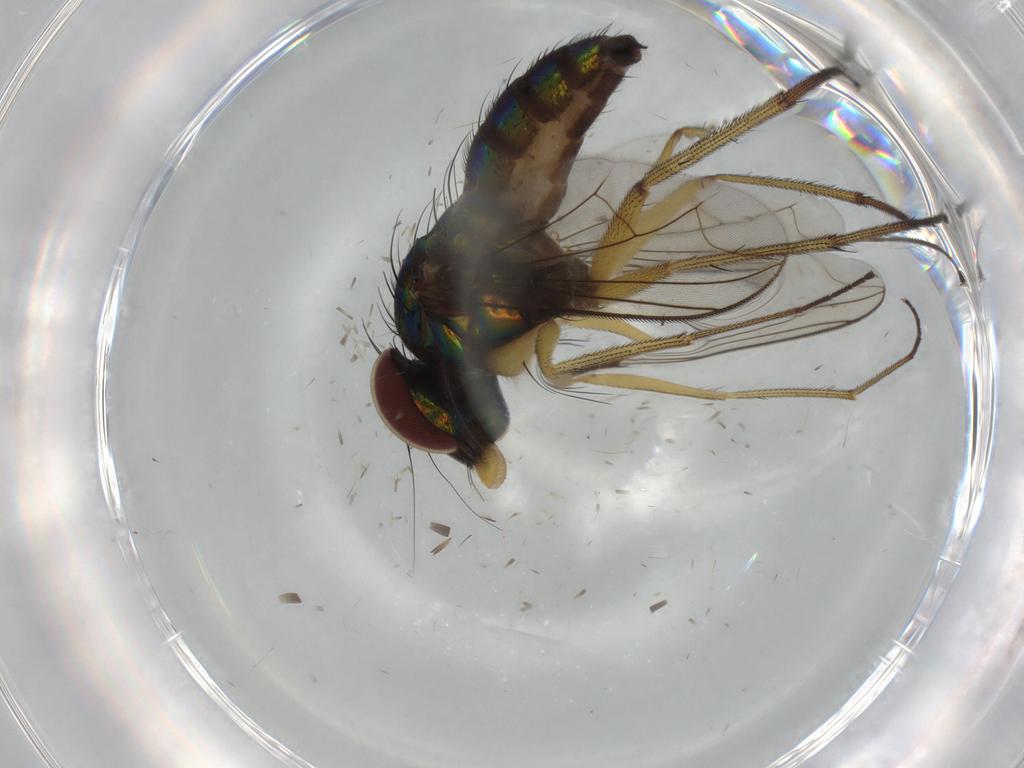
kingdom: Animalia
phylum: Arthropoda
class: Insecta
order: Diptera
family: Dolichopodidae
